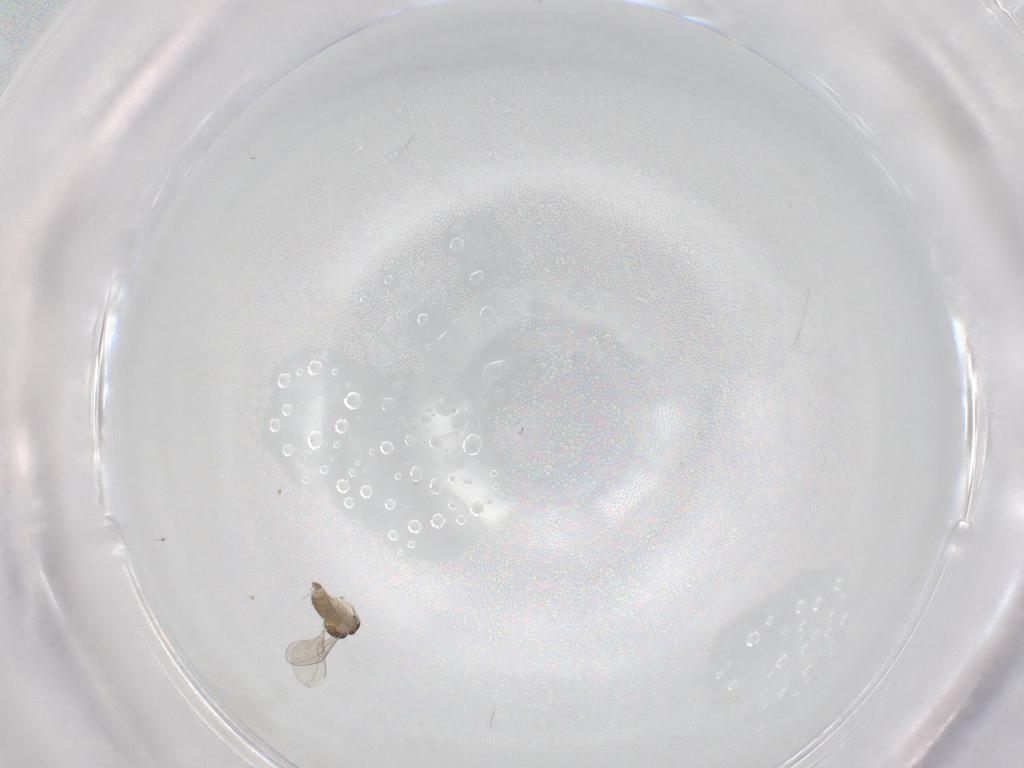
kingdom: Animalia
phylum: Arthropoda
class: Insecta
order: Diptera
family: Cecidomyiidae
